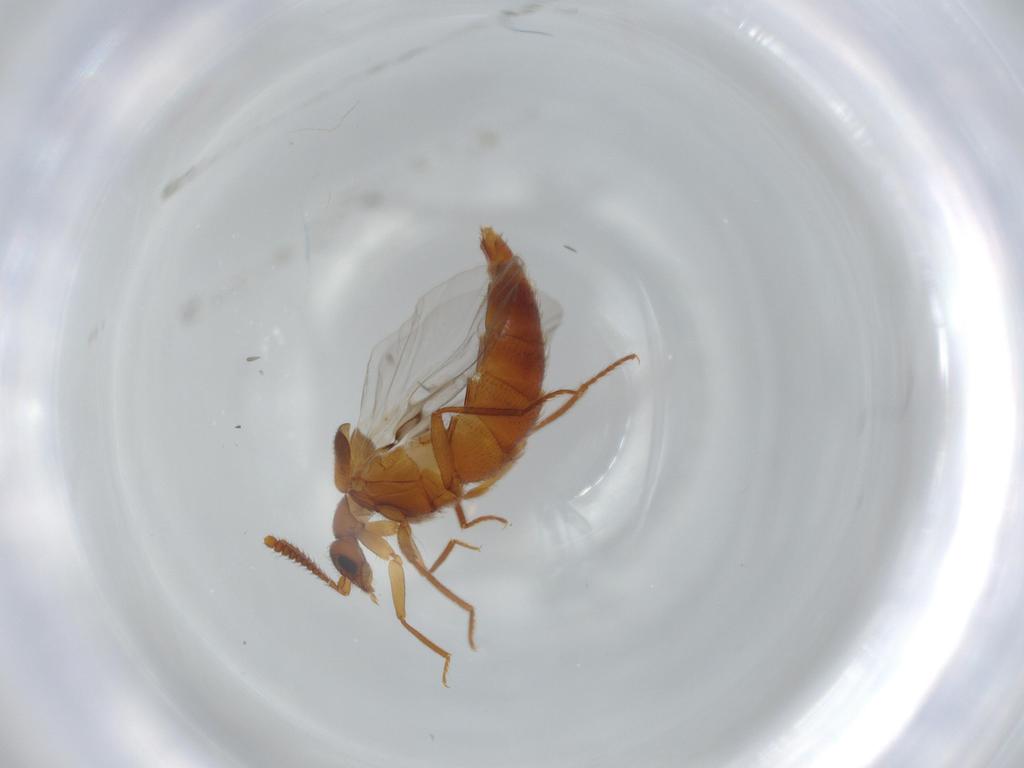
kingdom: Animalia
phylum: Arthropoda
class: Insecta
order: Coleoptera
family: Staphylinidae
